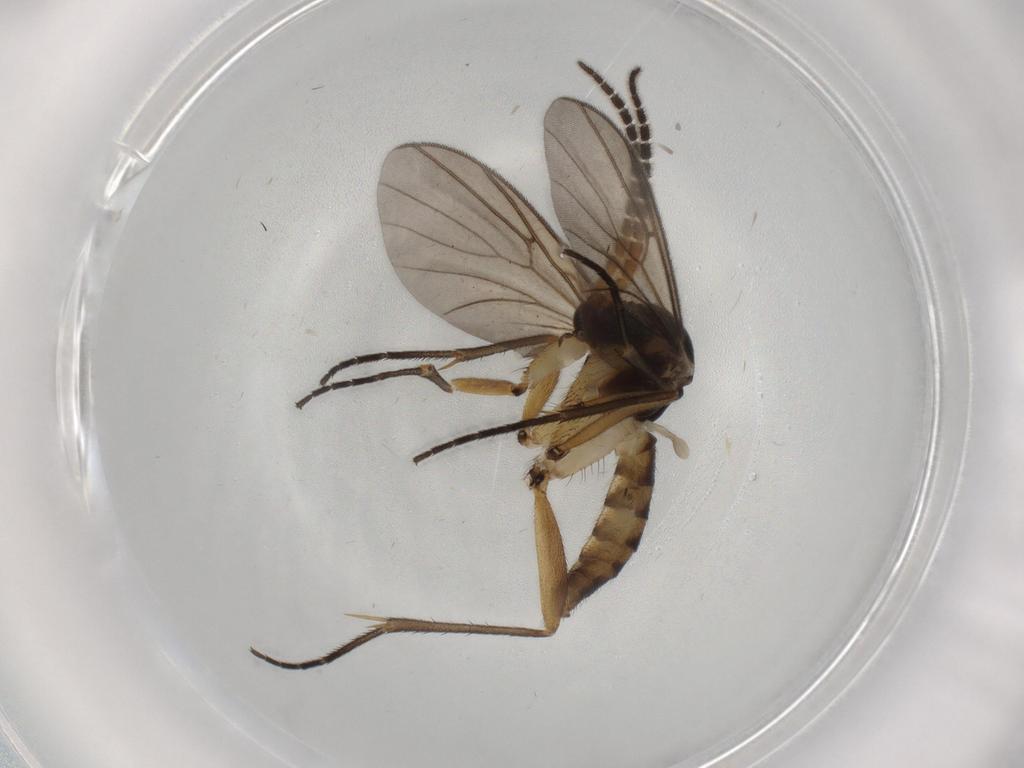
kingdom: Animalia
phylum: Arthropoda
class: Insecta
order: Diptera
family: Mycetophilidae
